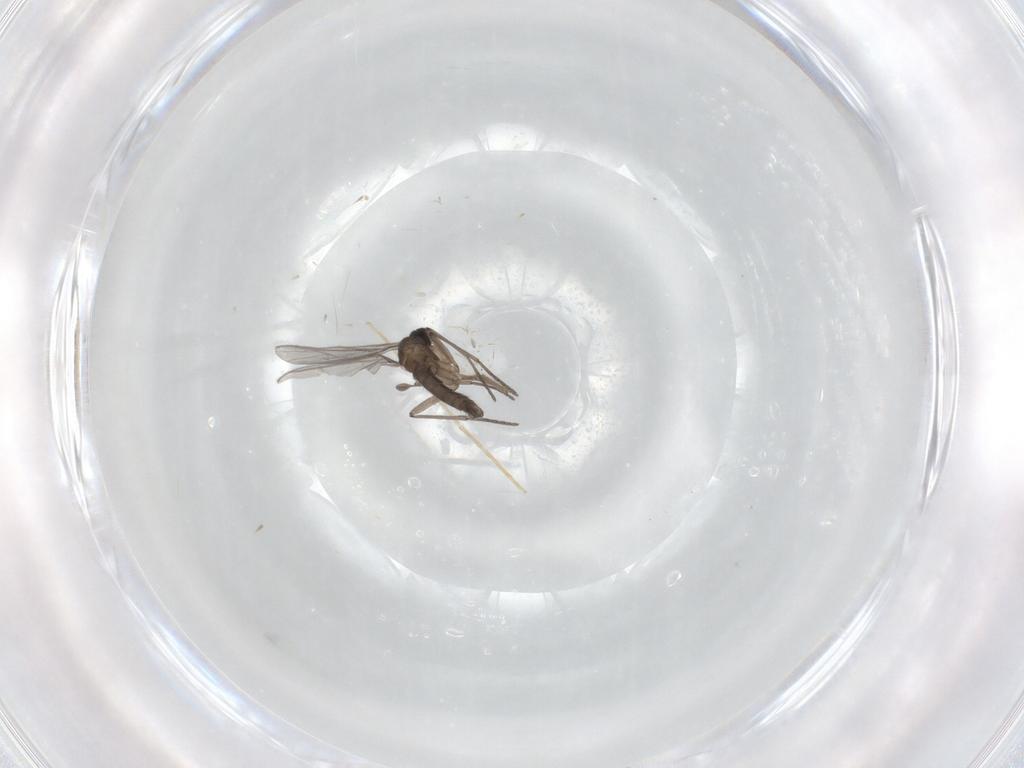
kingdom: Animalia
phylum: Arthropoda
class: Insecta
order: Diptera
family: Chironomidae
